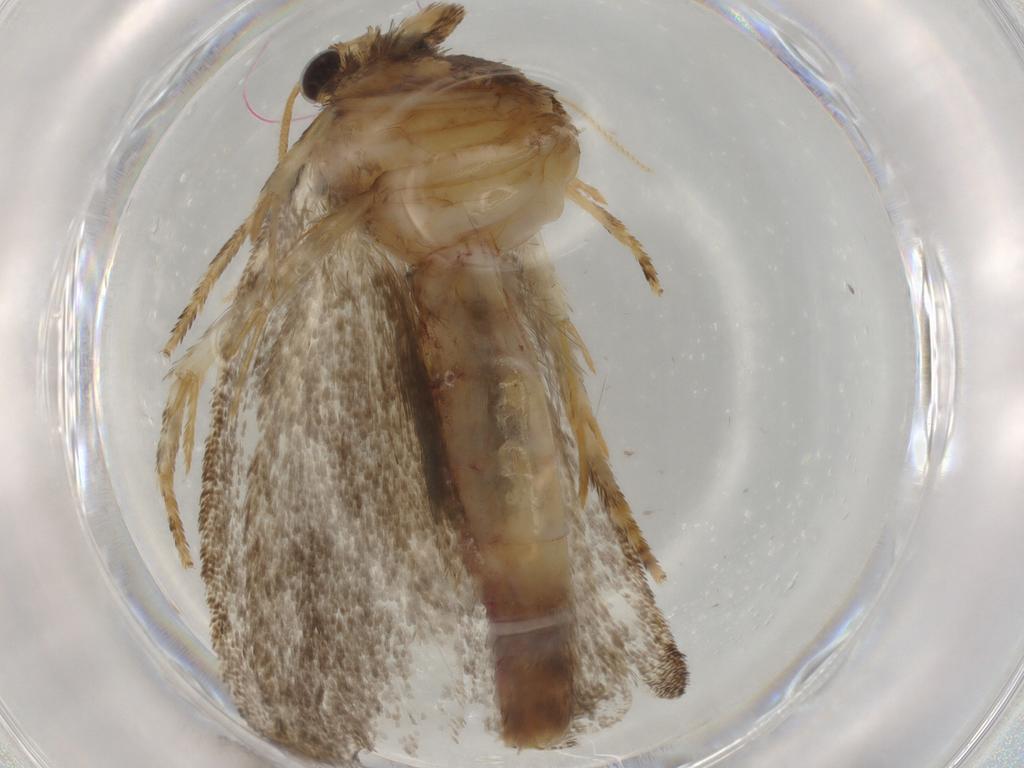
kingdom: Animalia
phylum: Arthropoda
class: Insecta
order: Lepidoptera
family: Tineidae
